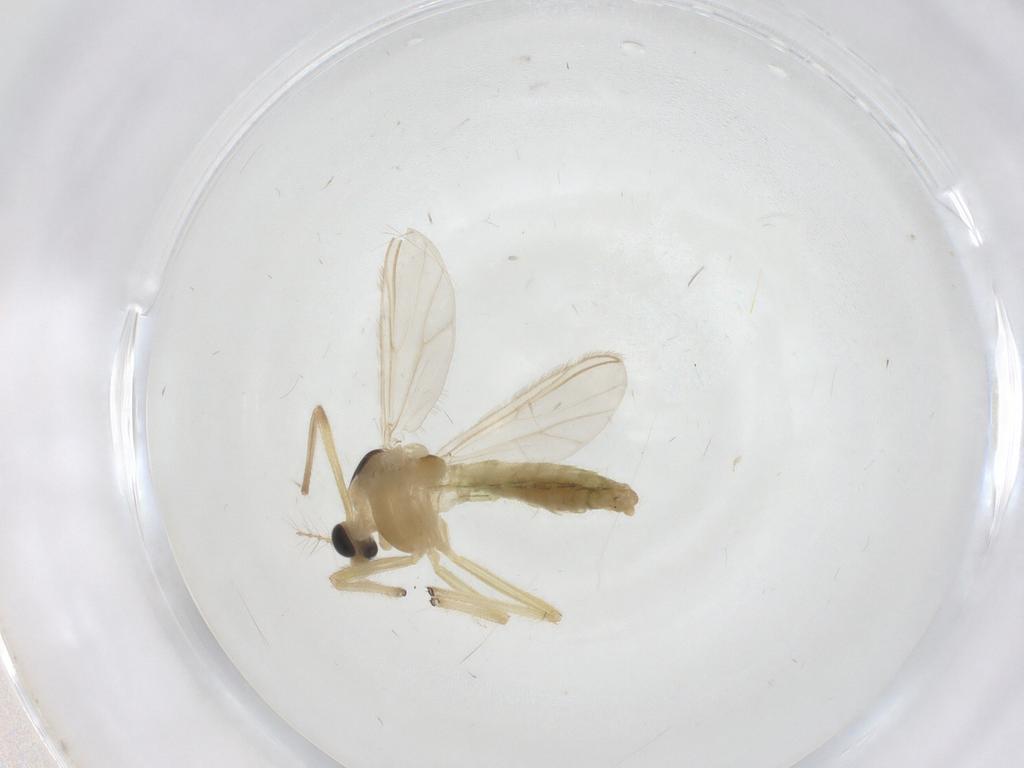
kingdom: Animalia
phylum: Arthropoda
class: Insecta
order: Diptera
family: Chironomidae
